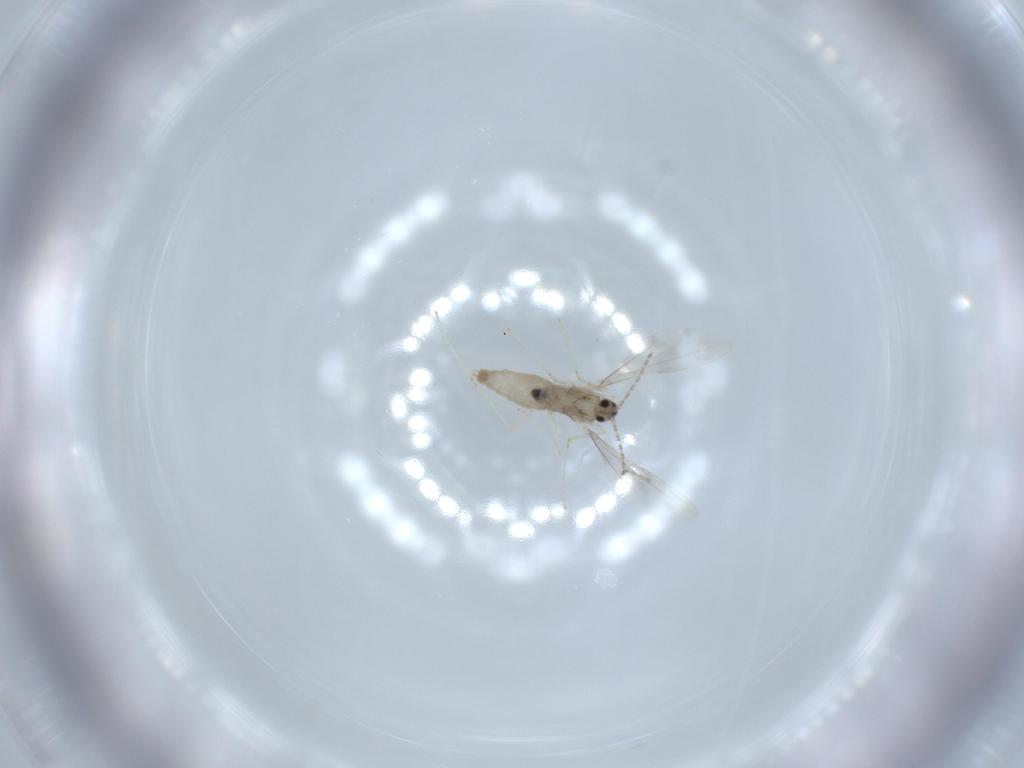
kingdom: Animalia
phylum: Arthropoda
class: Insecta
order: Diptera
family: Cecidomyiidae
